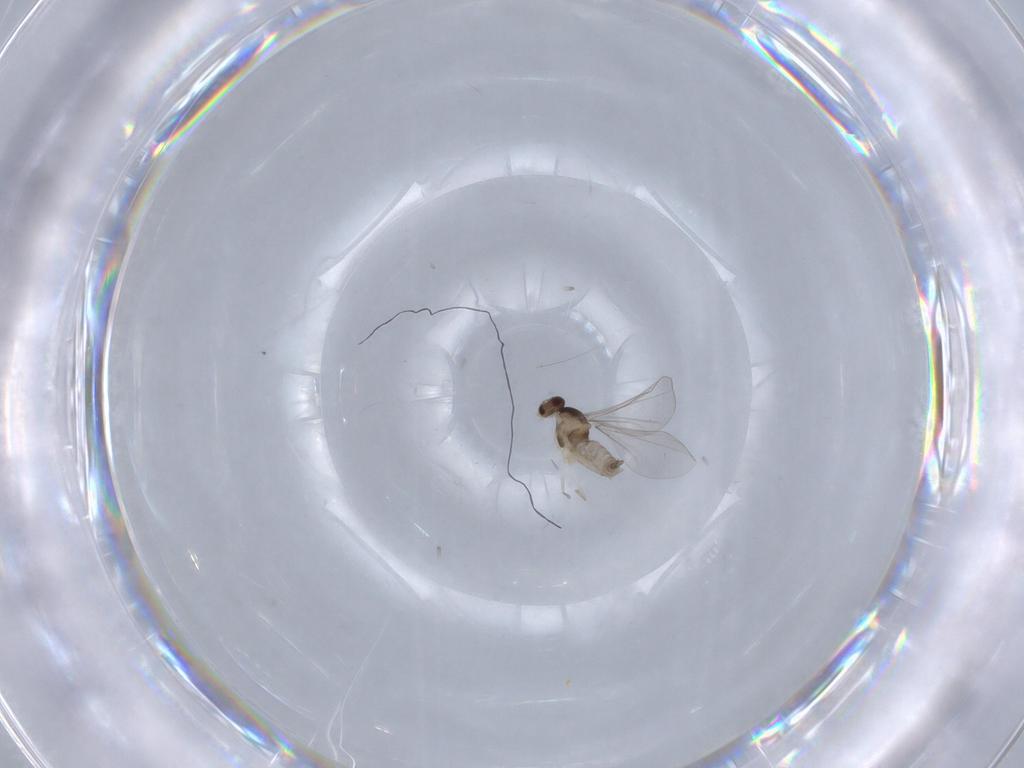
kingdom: Animalia
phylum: Arthropoda
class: Insecta
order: Diptera
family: Cecidomyiidae
